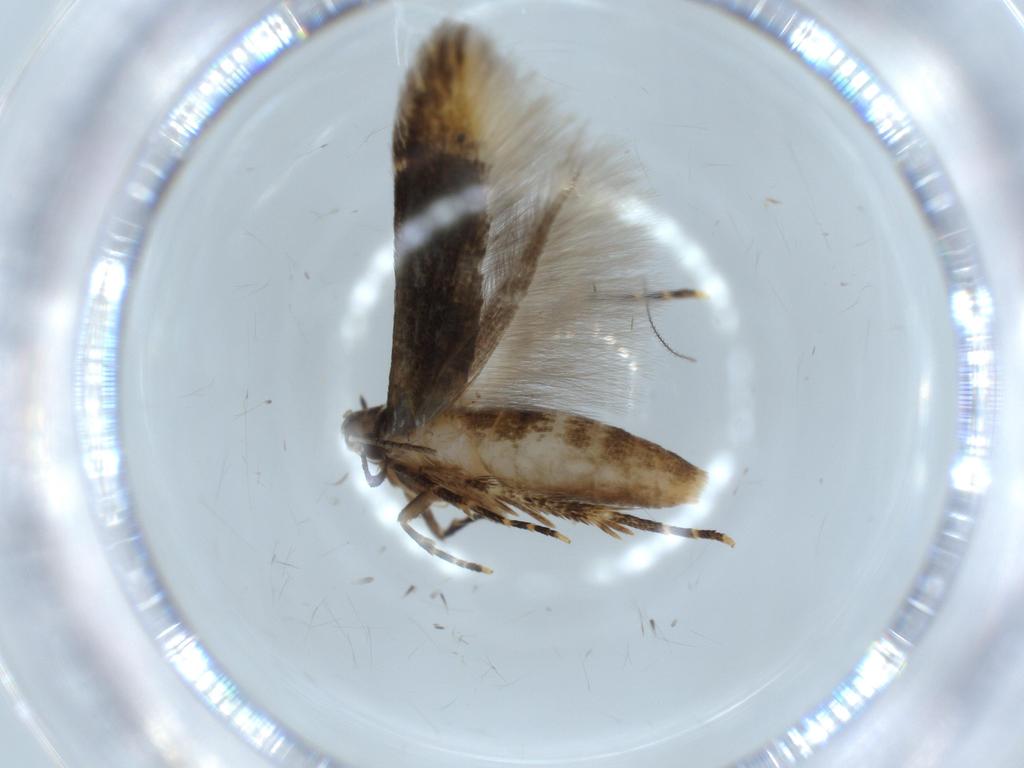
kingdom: Animalia
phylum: Arthropoda
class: Insecta
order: Lepidoptera
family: Stathmopodidae
